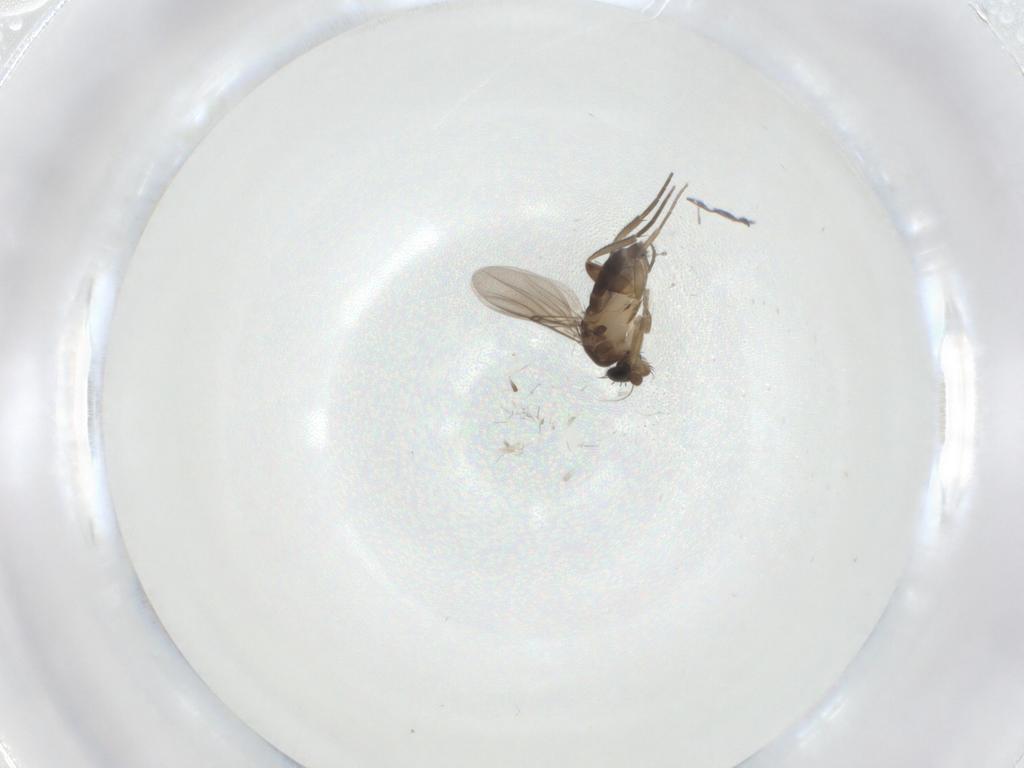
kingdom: Animalia
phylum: Arthropoda
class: Insecta
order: Diptera
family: Phoridae
